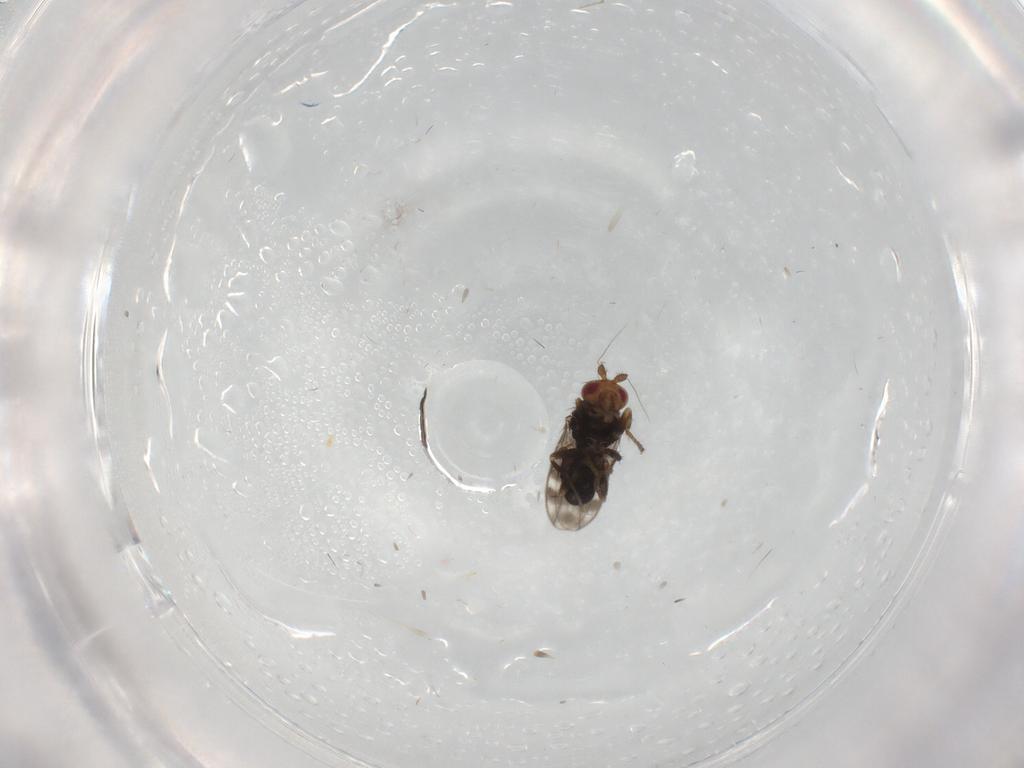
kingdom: Animalia
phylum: Arthropoda
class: Insecta
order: Diptera
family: Sphaeroceridae
